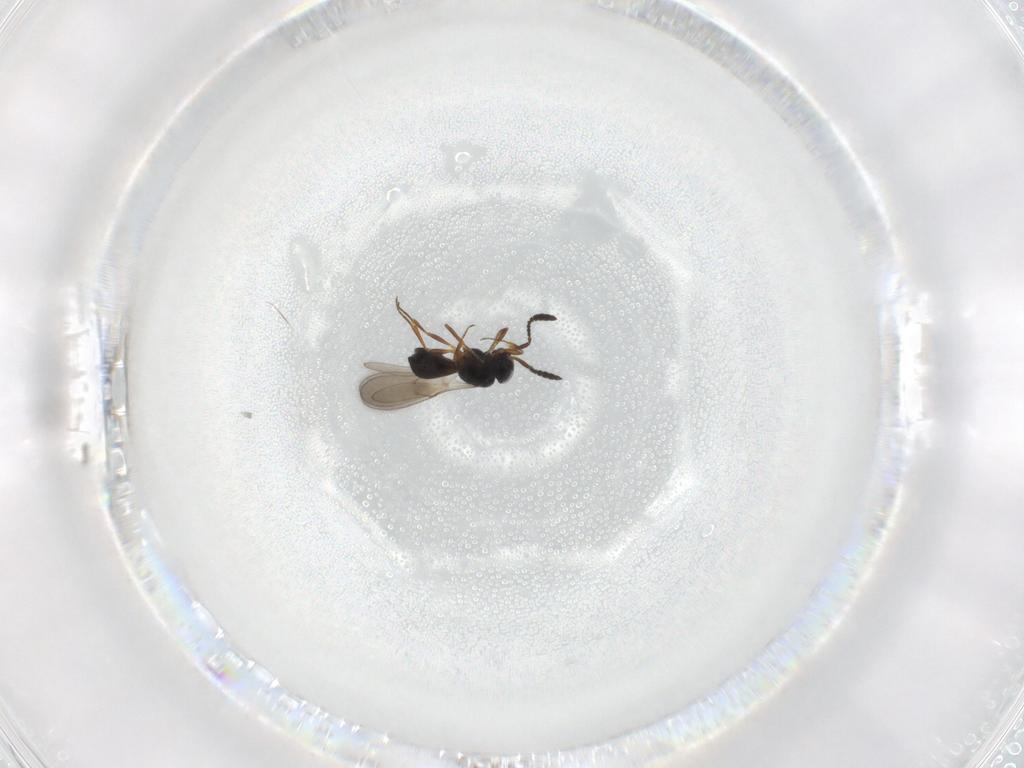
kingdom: Animalia
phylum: Arthropoda
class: Insecta
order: Hymenoptera
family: Scelionidae
